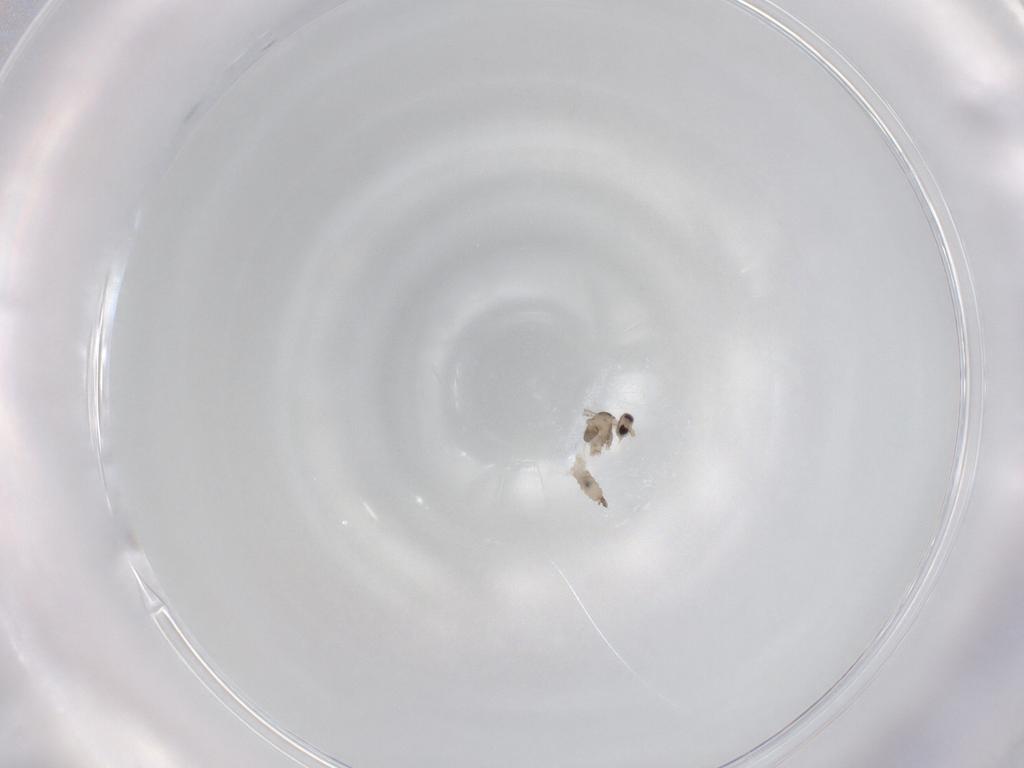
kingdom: Animalia
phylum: Arthropoda
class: Insecta
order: Diptera
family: Cecidomyiidae
